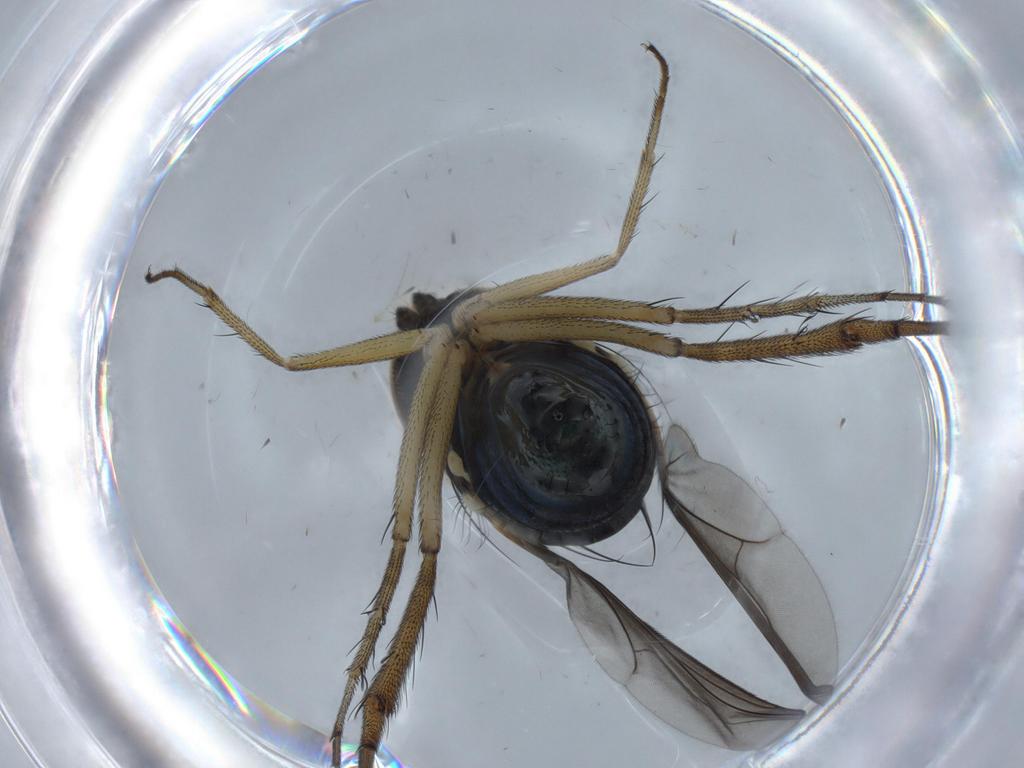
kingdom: Animalia
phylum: Arthropoda
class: Insecta
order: Diptera
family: Dolichopodidae
